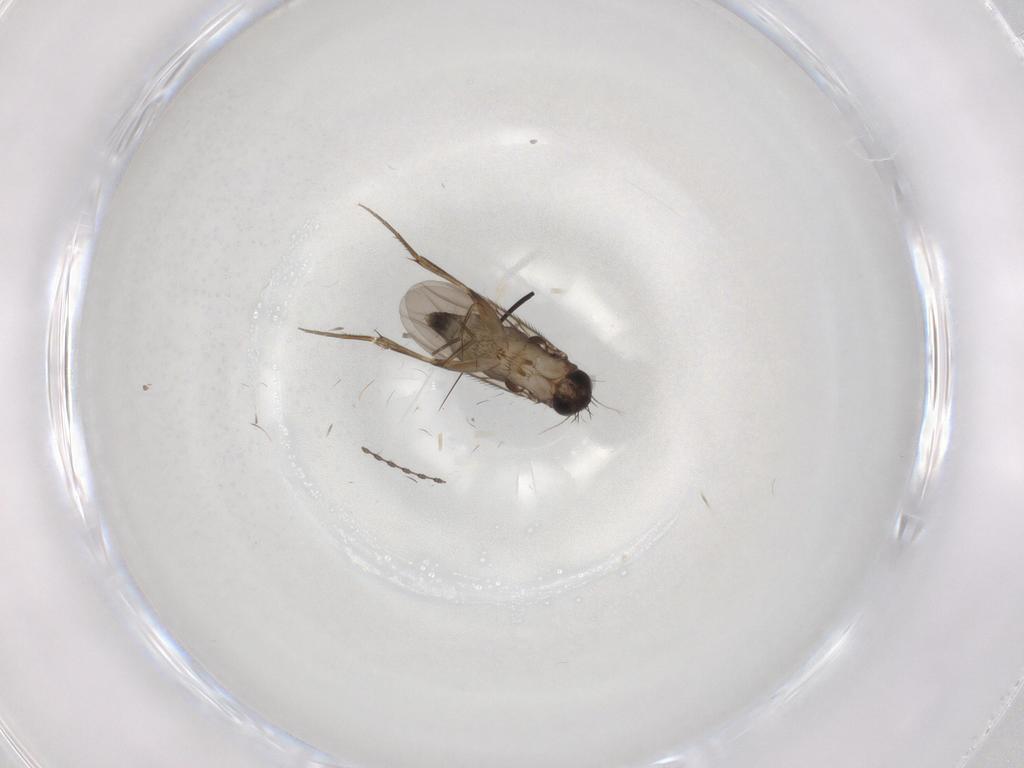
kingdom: Animalia
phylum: Arthropoda
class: Insecta
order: Diptera
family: Phoridae
